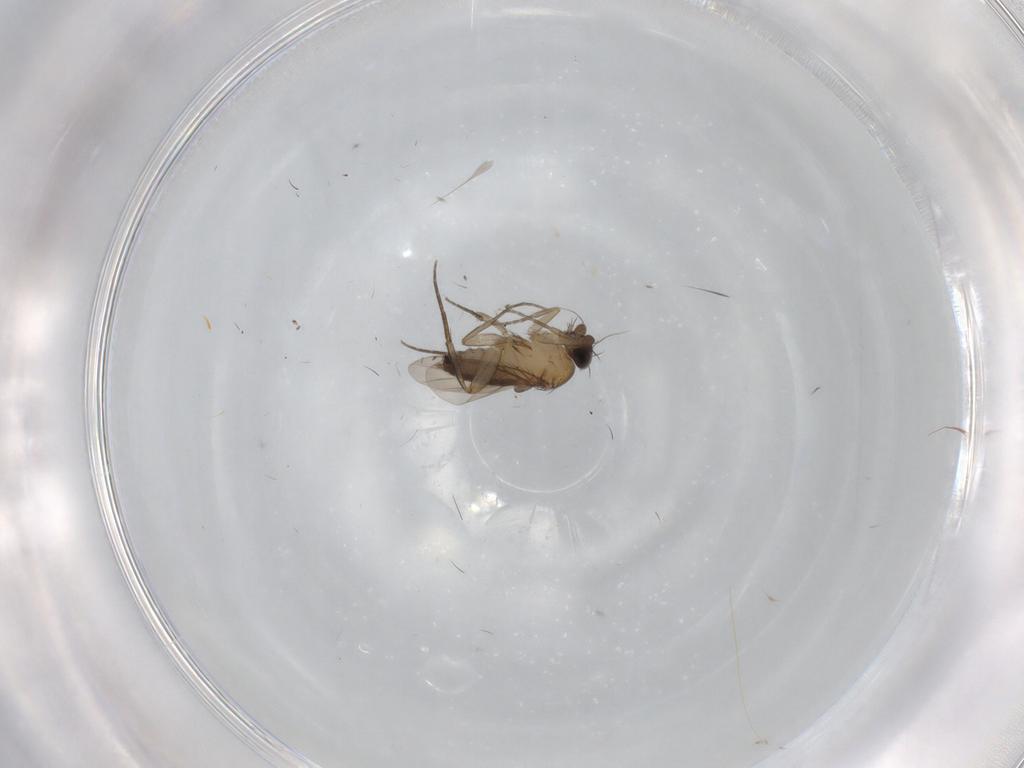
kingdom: Animalia
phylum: Arthropoda
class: Insecta
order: Diptera
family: Phoridae
